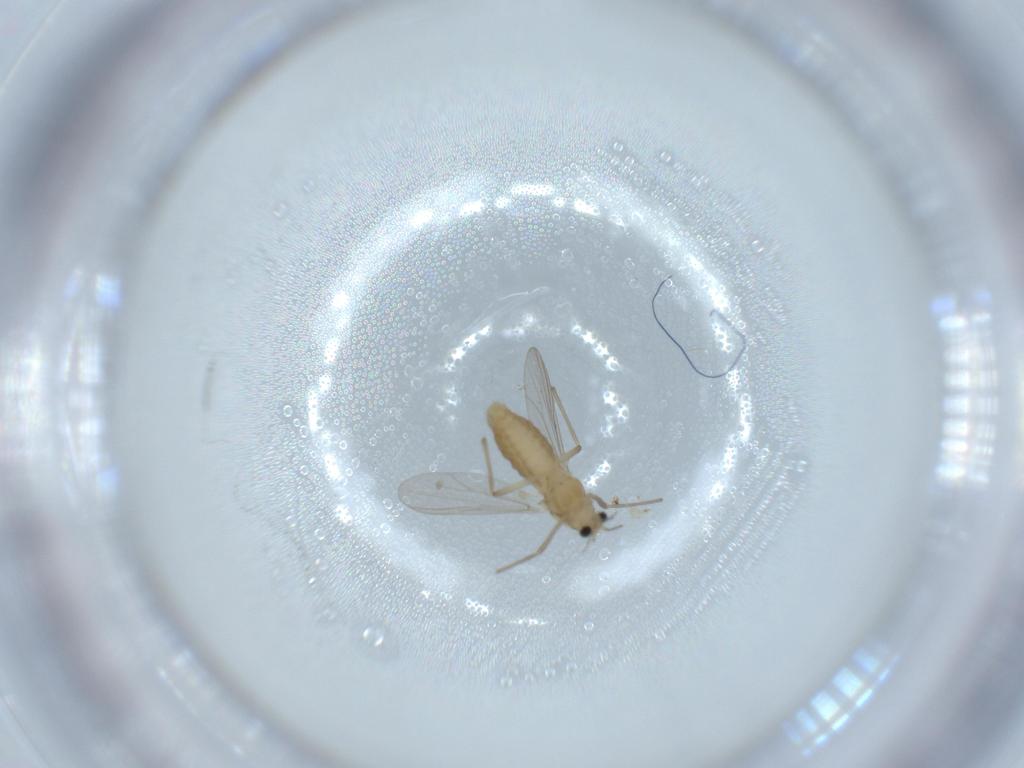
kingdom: Animalia
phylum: Arthropoda
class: Insecta
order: Diptera
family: Chironomidae
